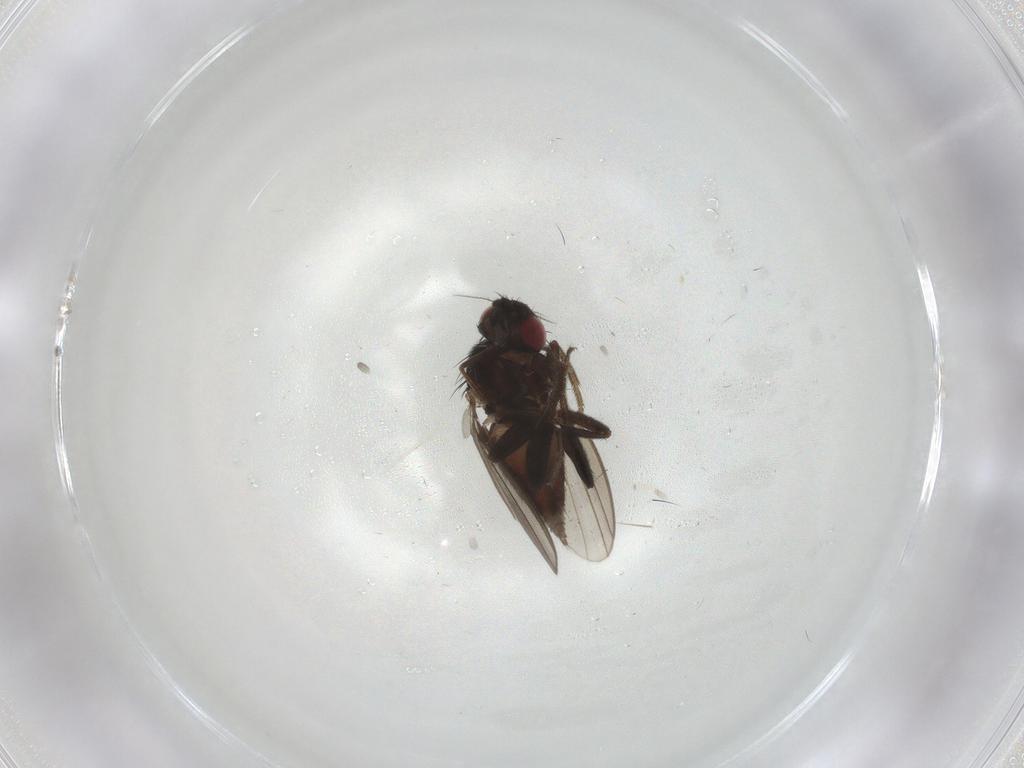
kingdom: Animalia
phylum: Arthropoda
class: Insecta
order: Diptera
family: Milichiidae
